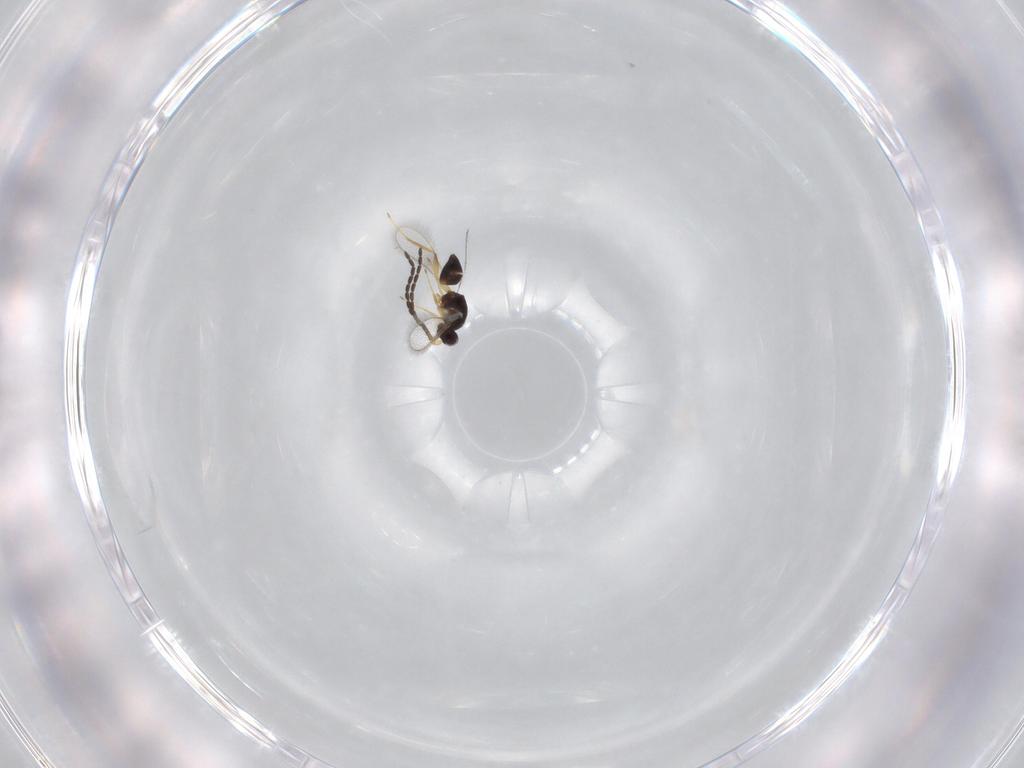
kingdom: Animalia
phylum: Arthropoda
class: Insecta
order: Hymenoptera
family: Mymaridae
